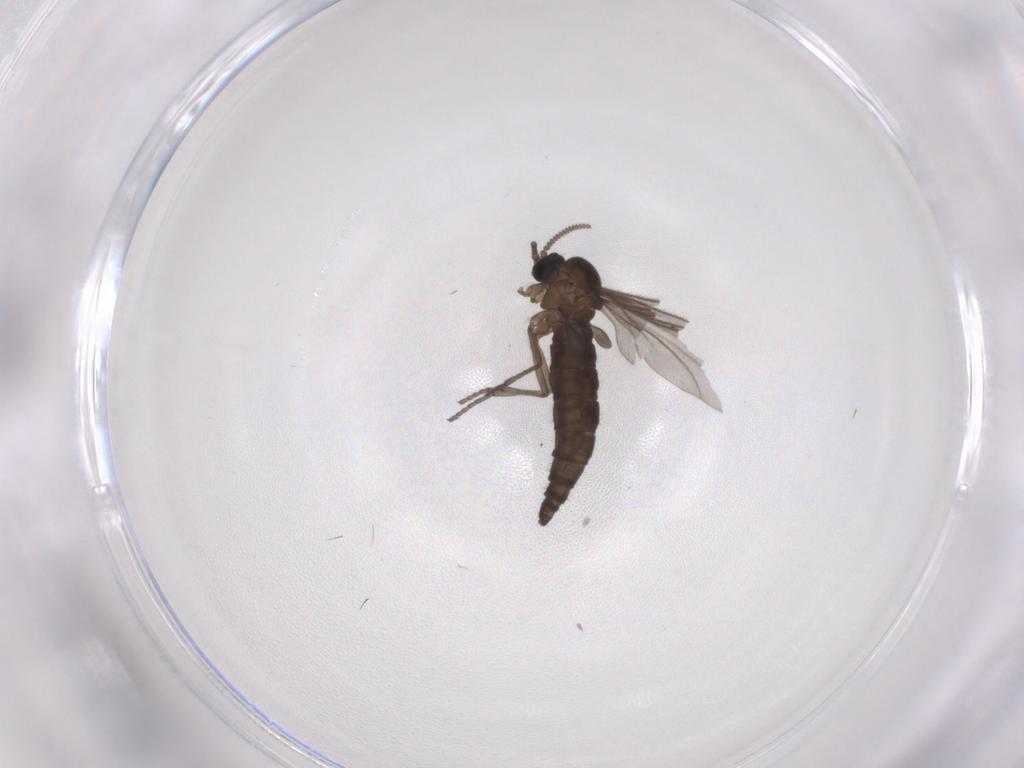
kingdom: Animalia
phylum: Arthropoda
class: Insecta
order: Diptera
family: Sciaridae
